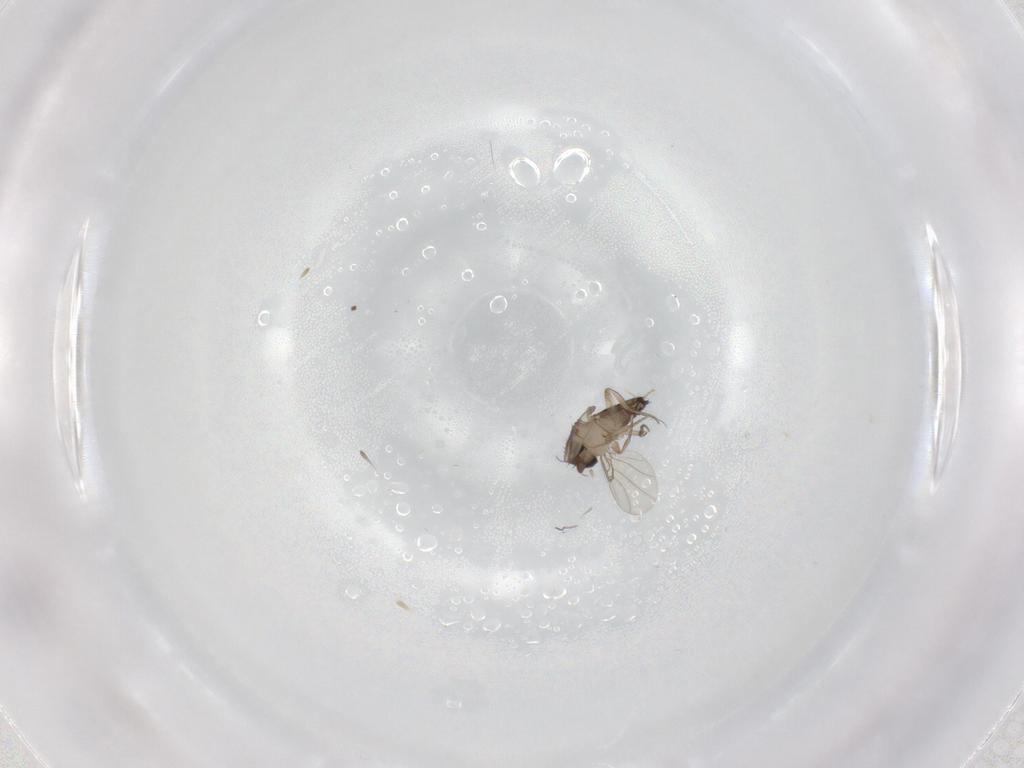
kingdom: Animalia
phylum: Arthropoda
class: Insecta
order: Diptera
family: Phoridae
